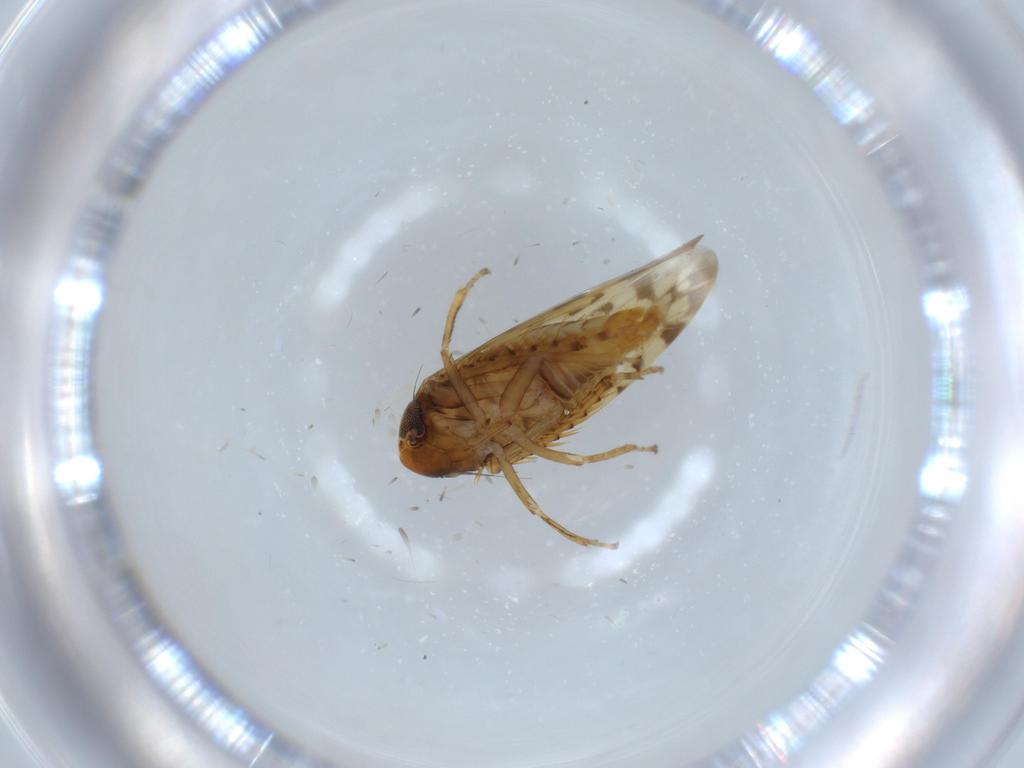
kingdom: Animalia
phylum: Arthropoda
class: Insecta
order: Hemiptera
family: Cicadellidae
